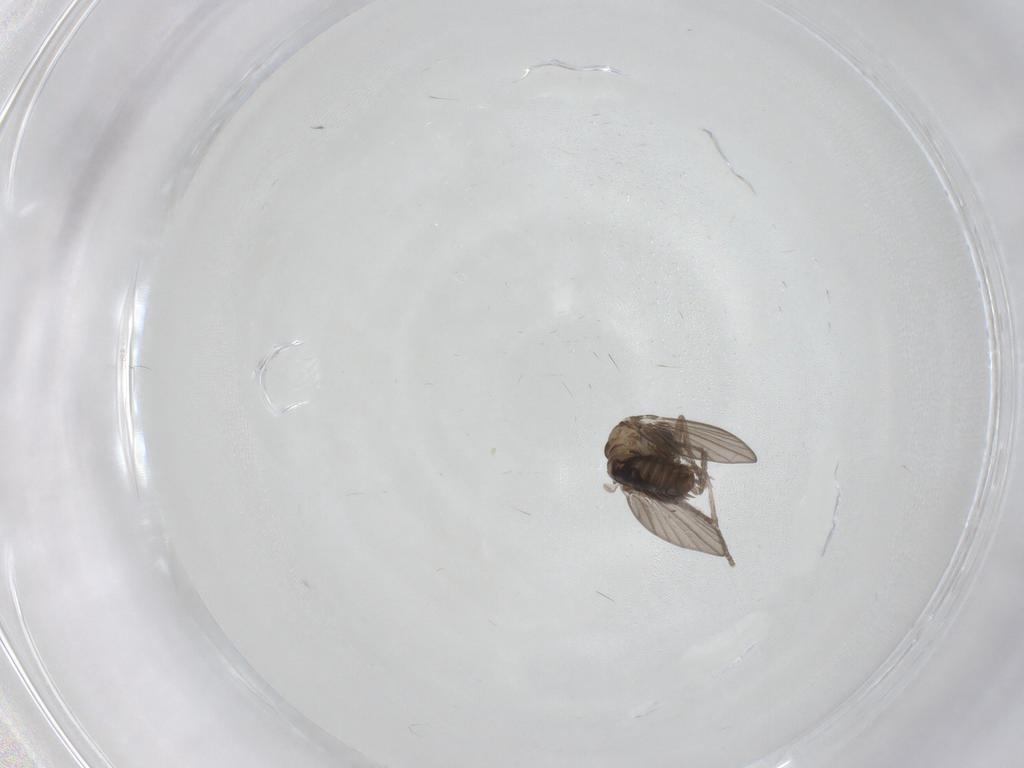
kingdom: Animalia
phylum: Arthropoda
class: Insecta
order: Diptera
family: Psychodidae
